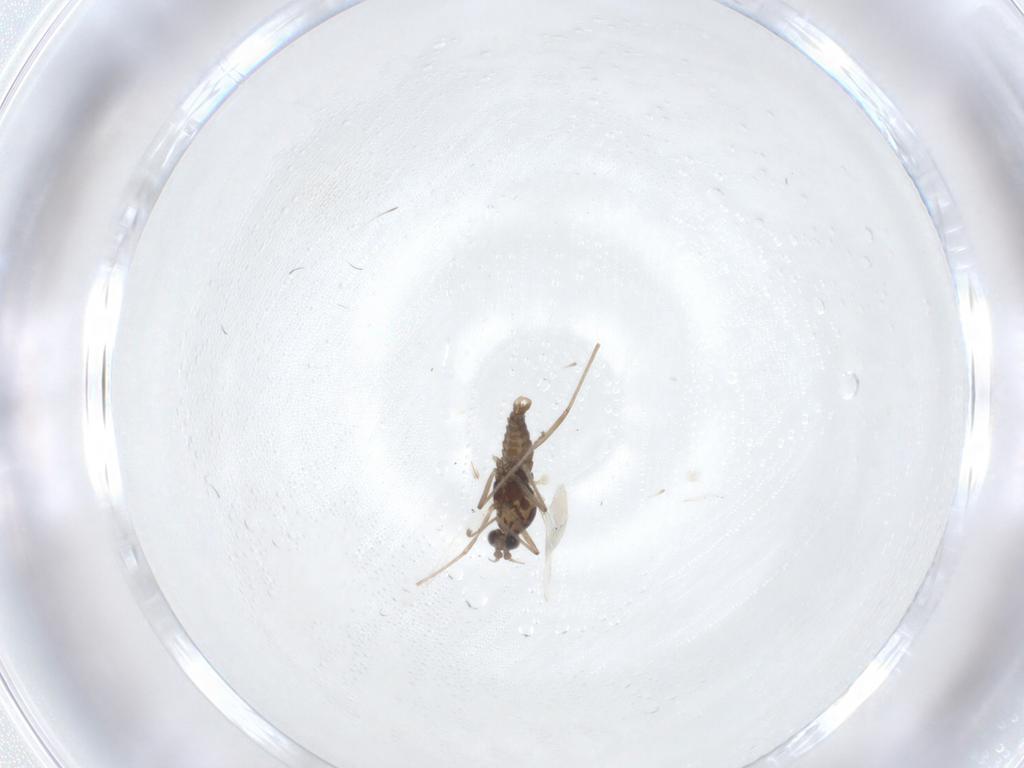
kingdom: Animalia
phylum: Arthropoda
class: Insecta
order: Diptera
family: Cecidomyiidae
